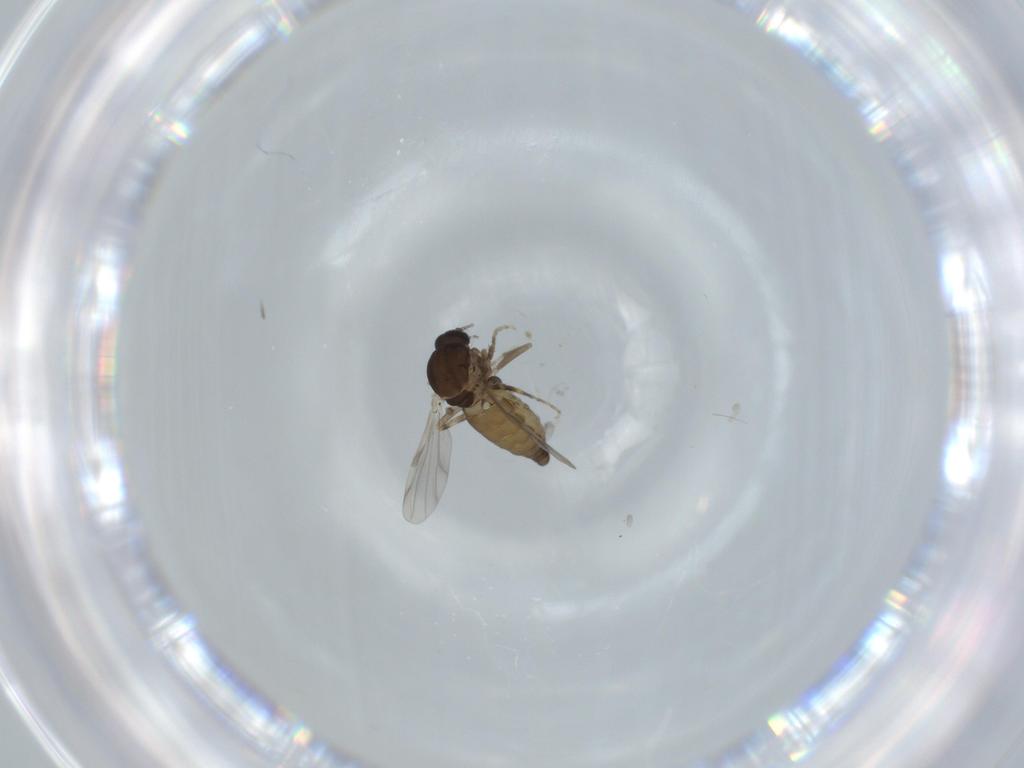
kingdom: Animalia
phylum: Arthropoda
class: Insecta
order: Diptera
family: Ceratopogonidae
